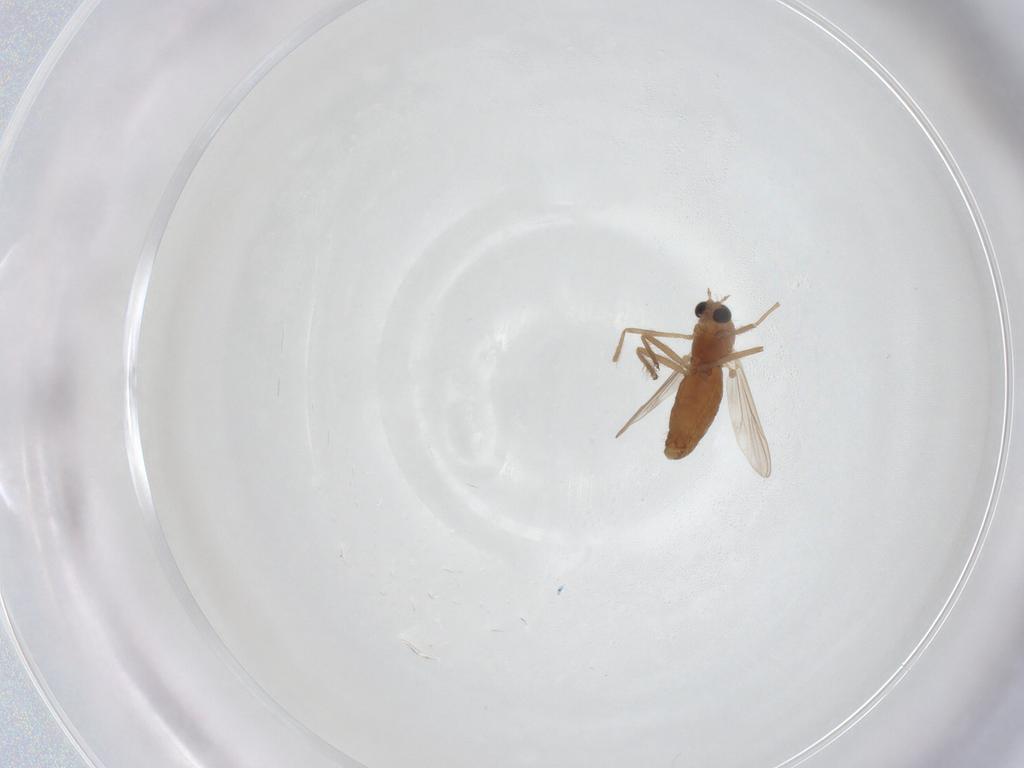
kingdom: Animalia
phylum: Arthropoda
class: Insecta
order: Diptera
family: Chironomidae
